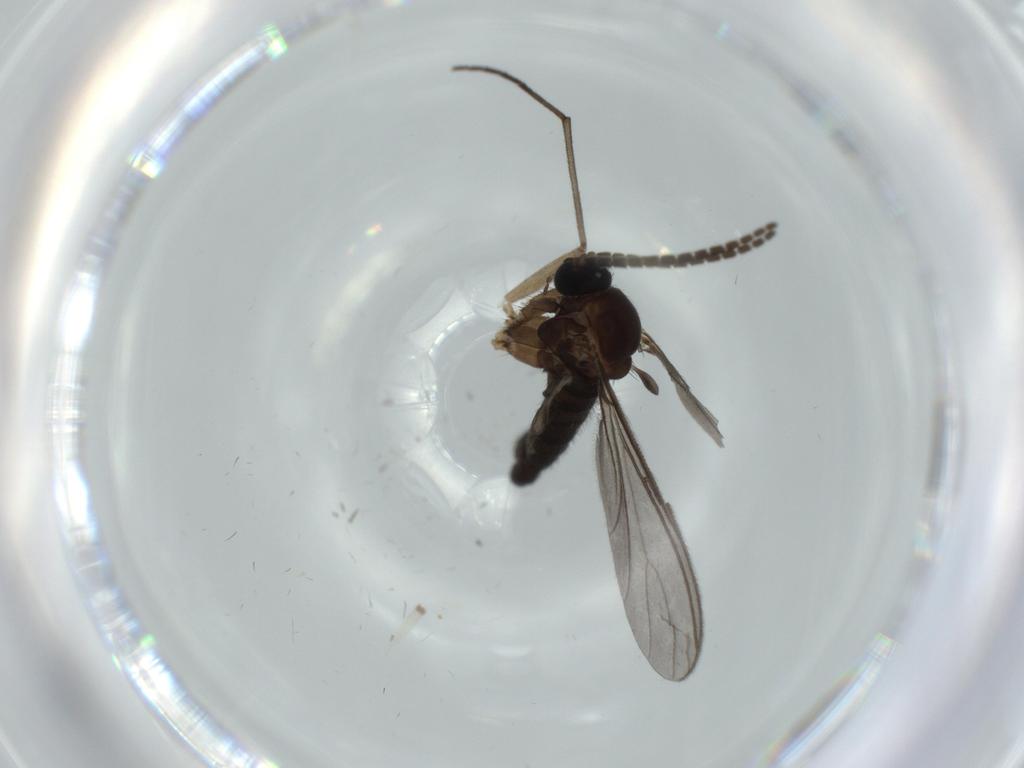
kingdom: Animalia
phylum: Arthropoda
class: Insecta
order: Diptera
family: Sciaridae
